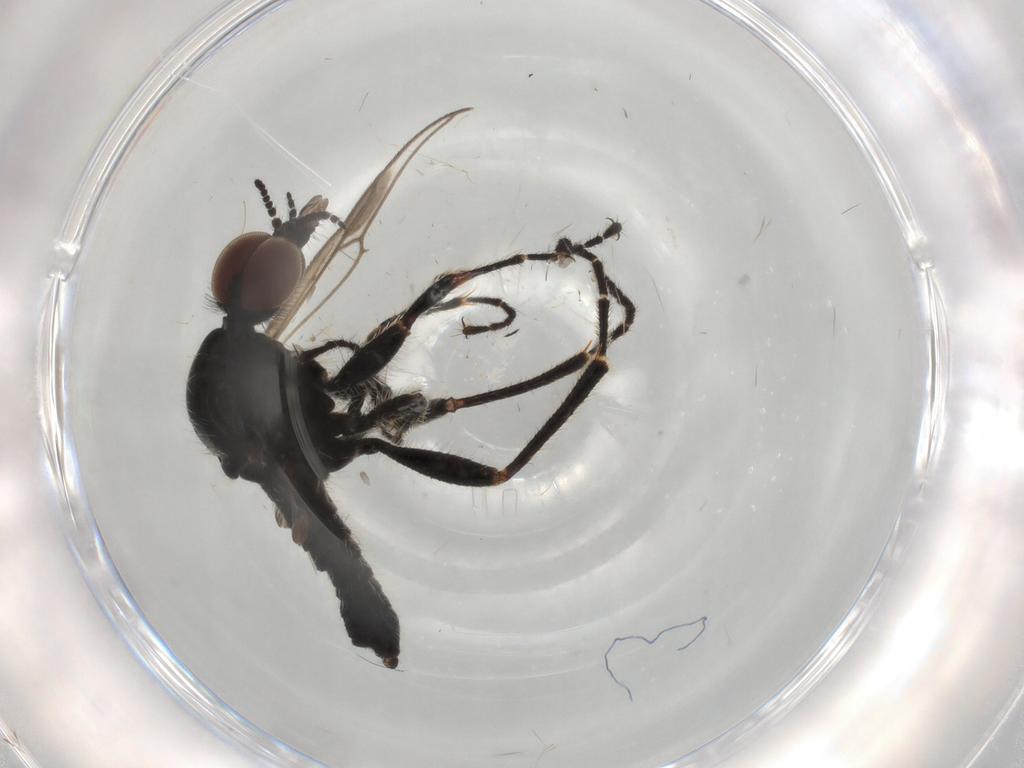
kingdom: Animalia
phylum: Arthropoda
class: Insecta
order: Diptera
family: Bibionidae
